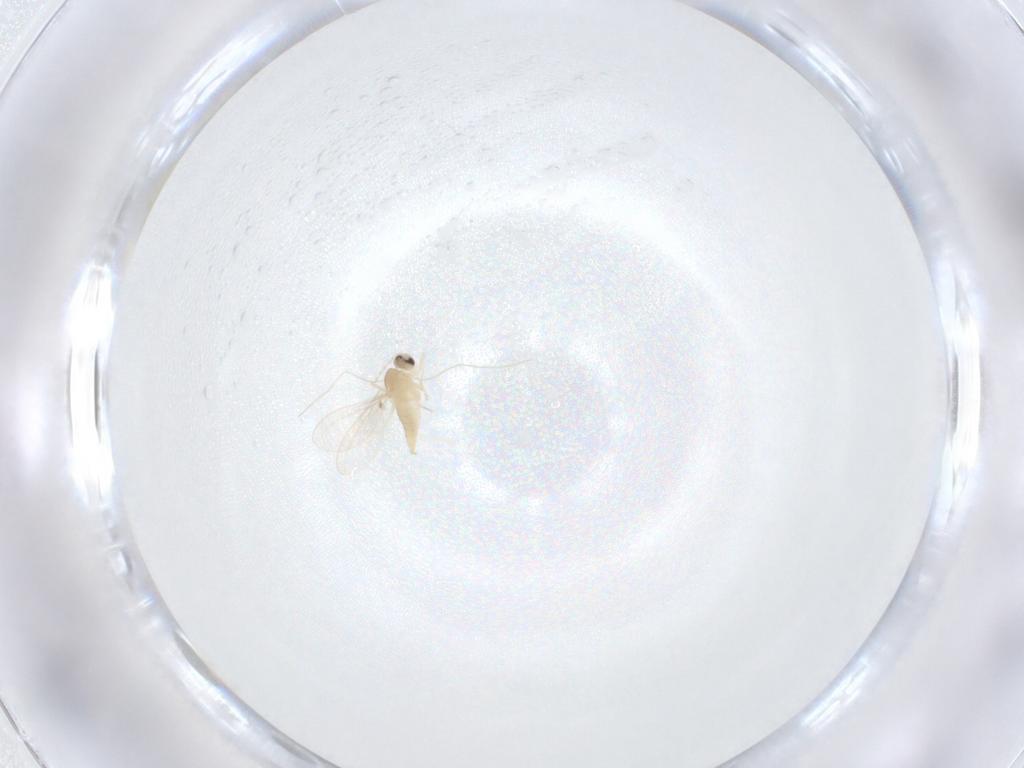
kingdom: Animalia
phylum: Arthropoda
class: Insecta
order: Diptera
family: Cecidomyiidae
